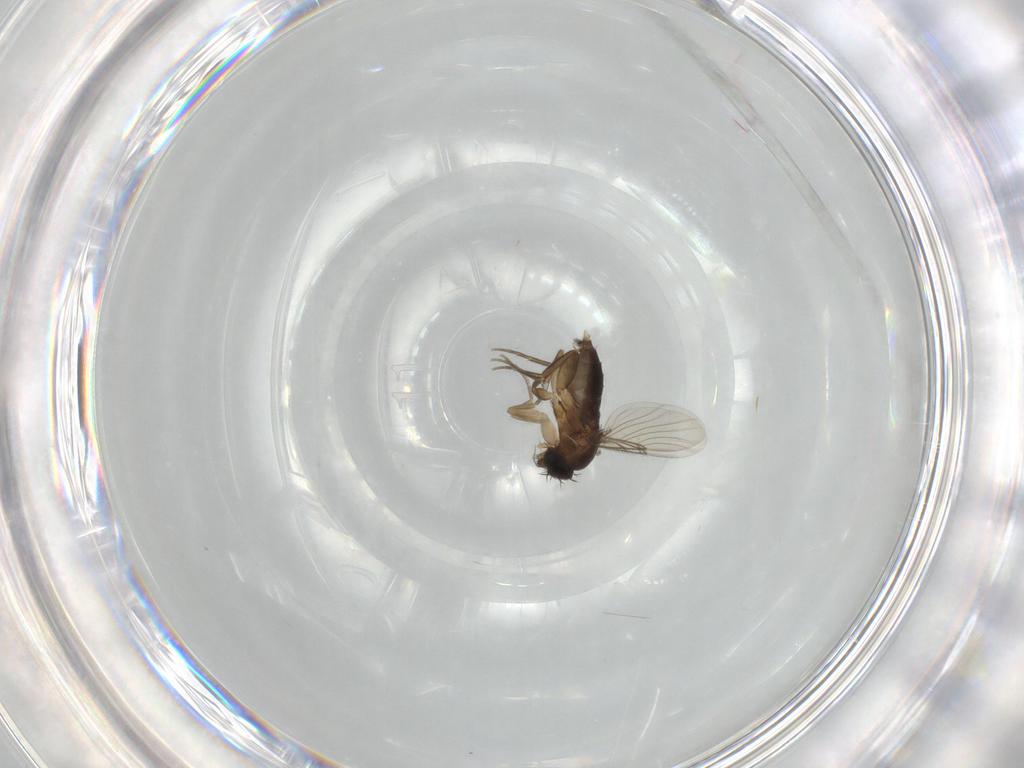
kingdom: Animalia
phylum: Arthropoda
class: Insecta
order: Diptera
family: Phoridae
